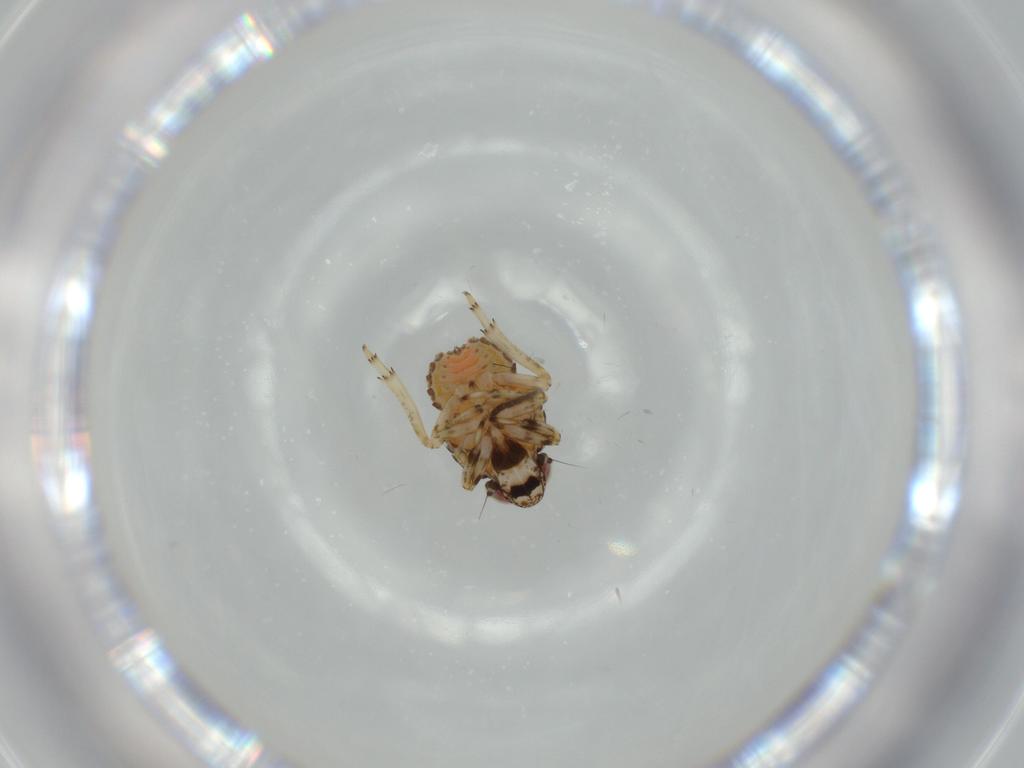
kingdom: Animalia
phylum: Arthropoda
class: Insecta
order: Hemiptera
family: Issidae
